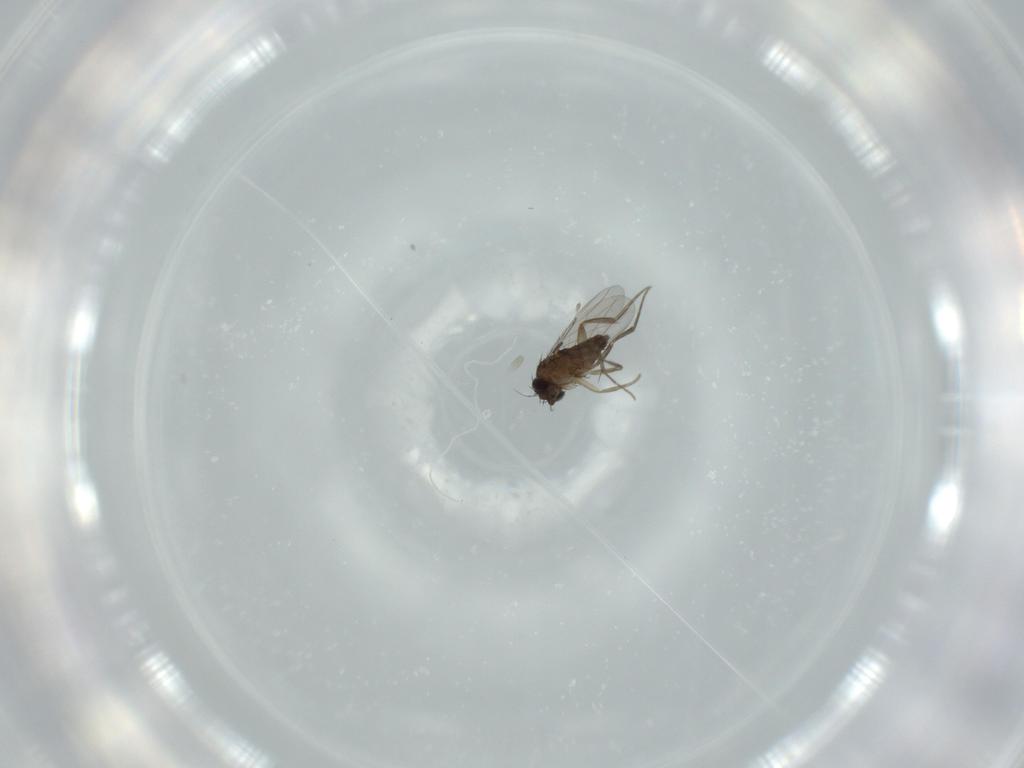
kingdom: Animalia
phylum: Arthropoda
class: Insecta
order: Diptera
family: Phoridae
